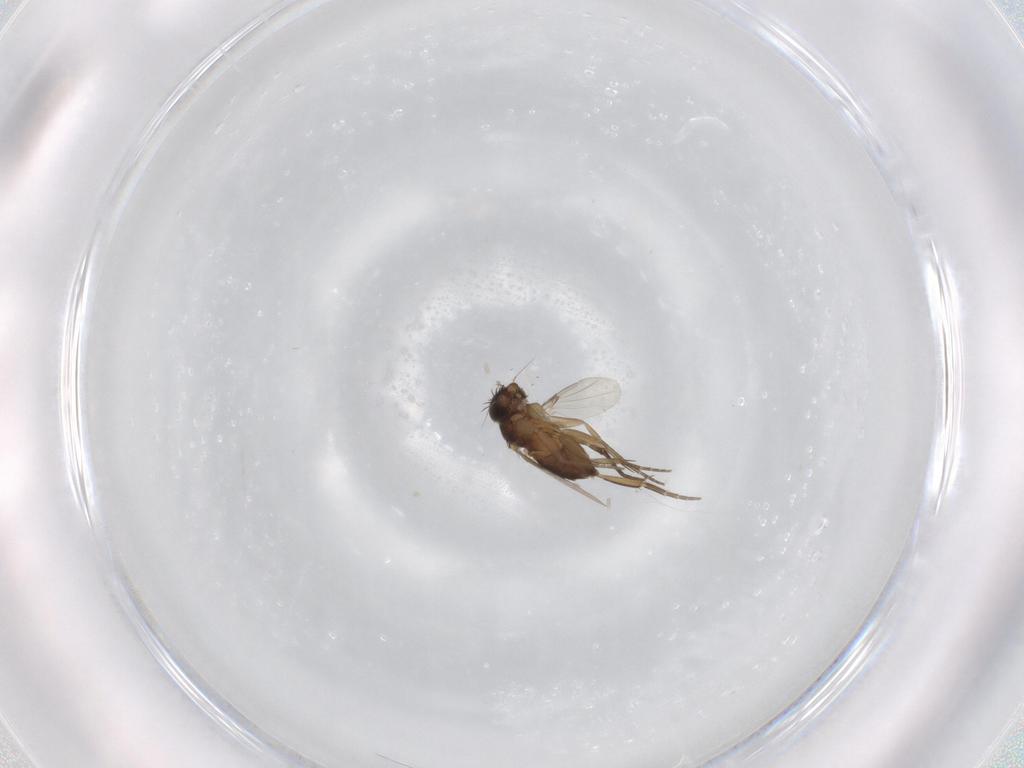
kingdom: Animalia
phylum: Arthropoda
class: Insecta
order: Diptera
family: Phoridae
